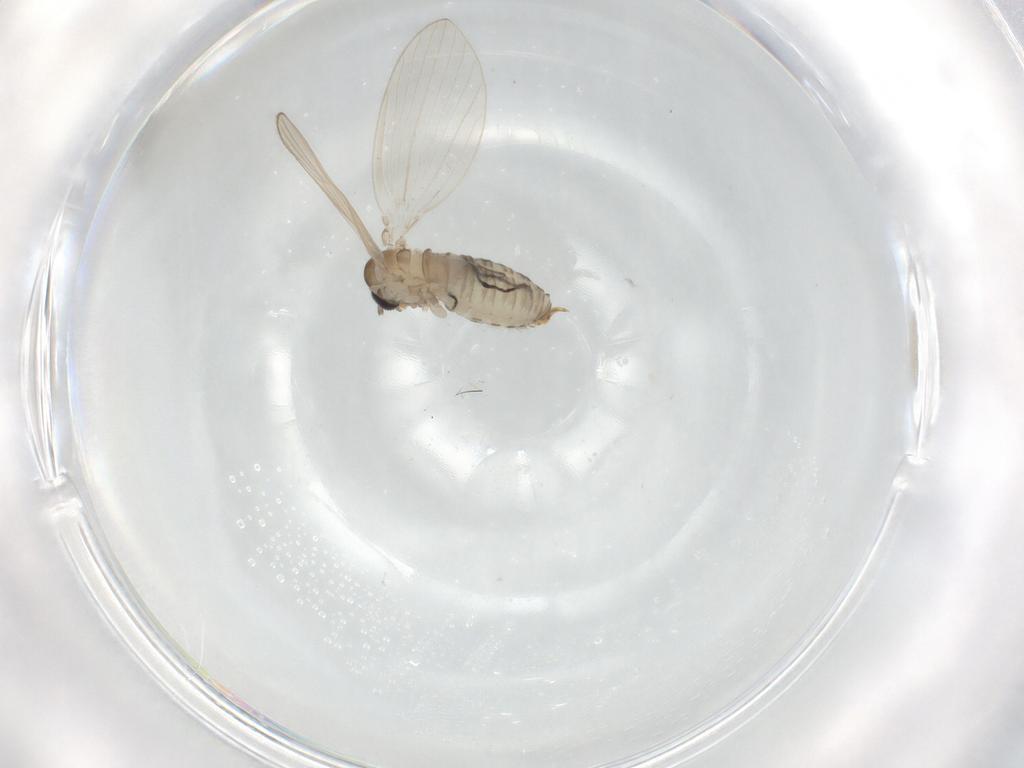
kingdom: Animalia
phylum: Arthropoda
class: Insecta
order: Diptera
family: Psychodidae
